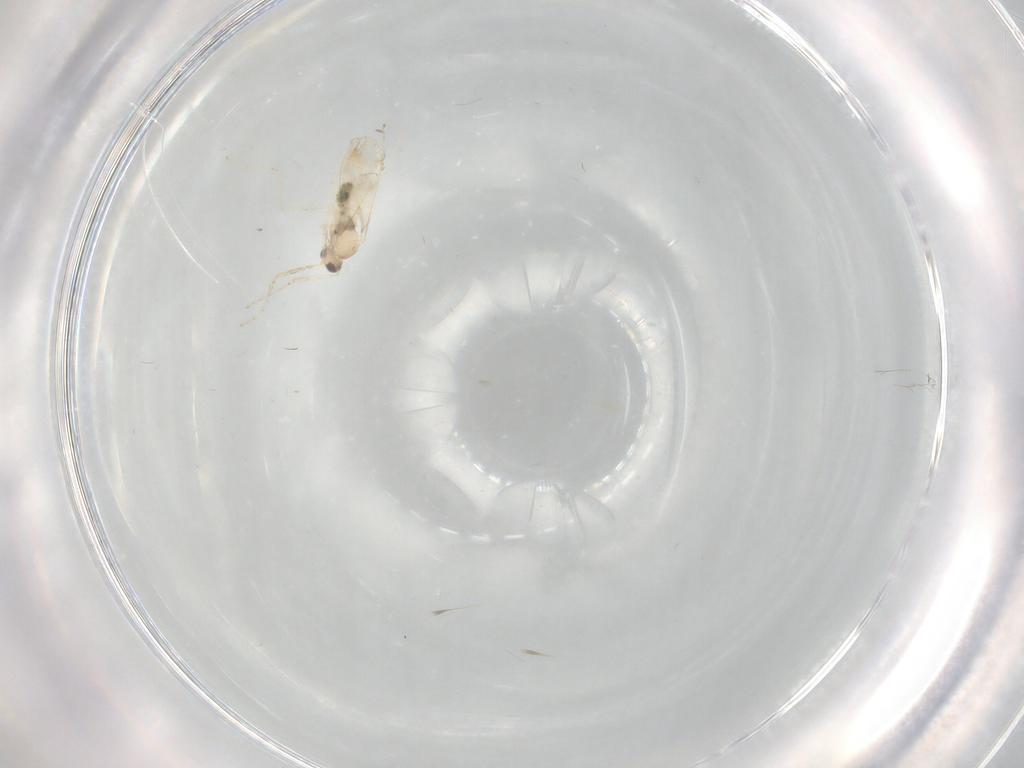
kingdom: Animalia
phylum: Arthropoda
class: Insecta
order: Diptera
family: Cecidomyiidae
